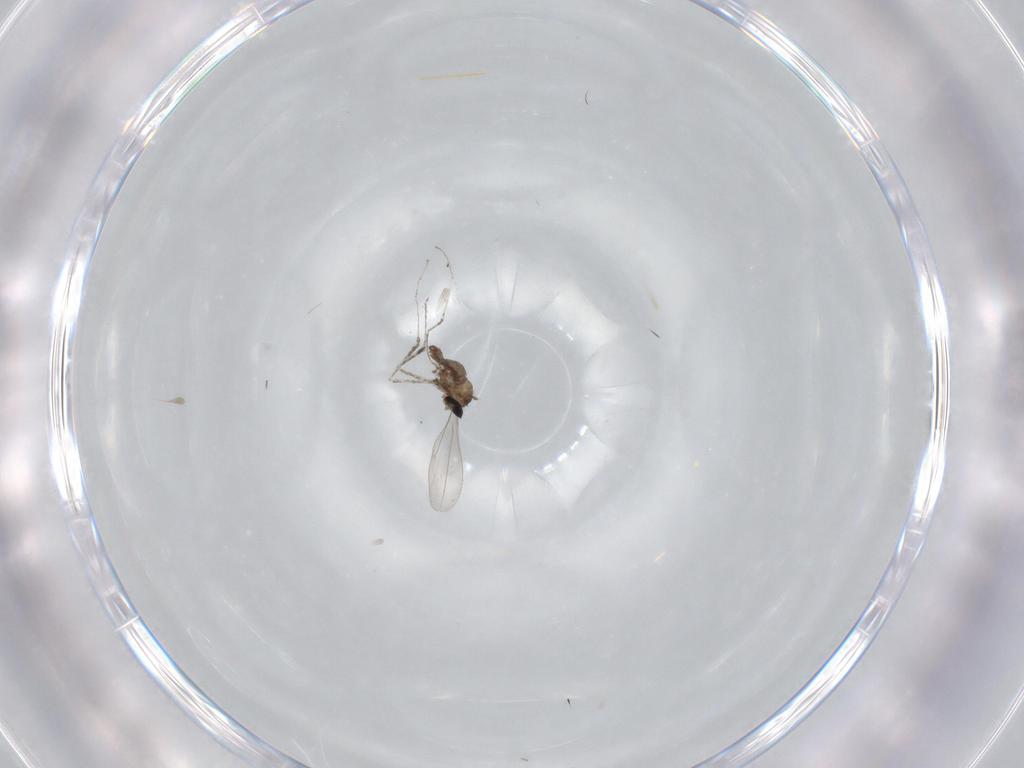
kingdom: Animalia
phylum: Arthropoda
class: Insecta
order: Diptera
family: Cecidomyiidae
